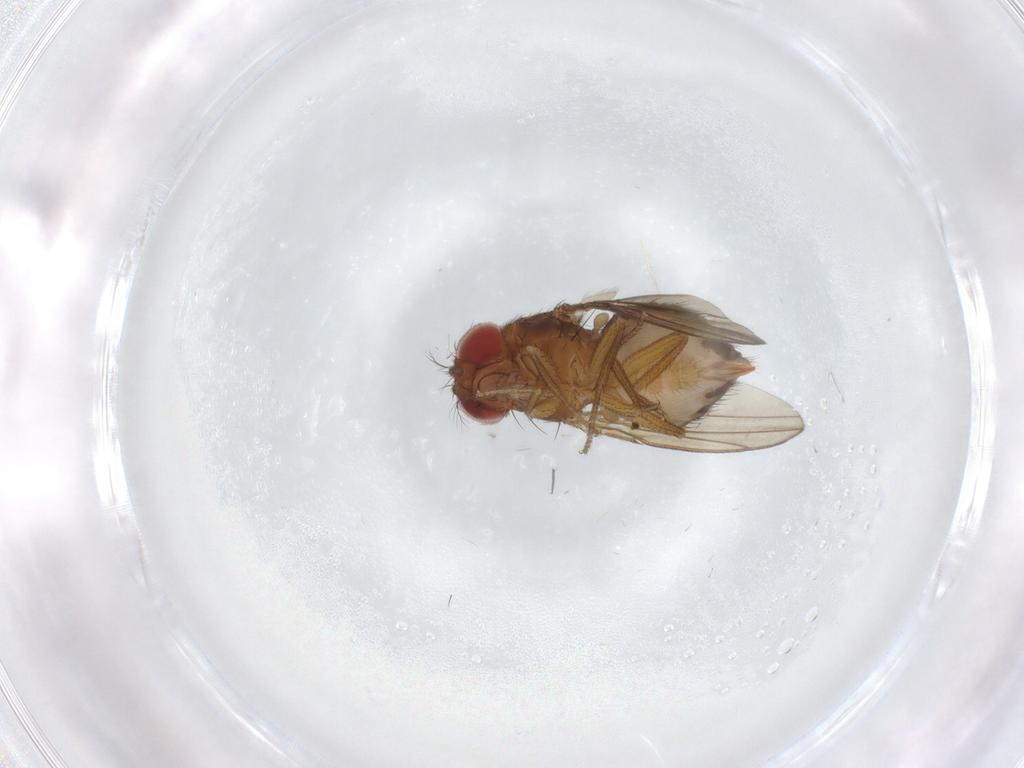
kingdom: Animalia
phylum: Arthropoda
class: Insecta
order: Diptera
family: Drosophilidae
